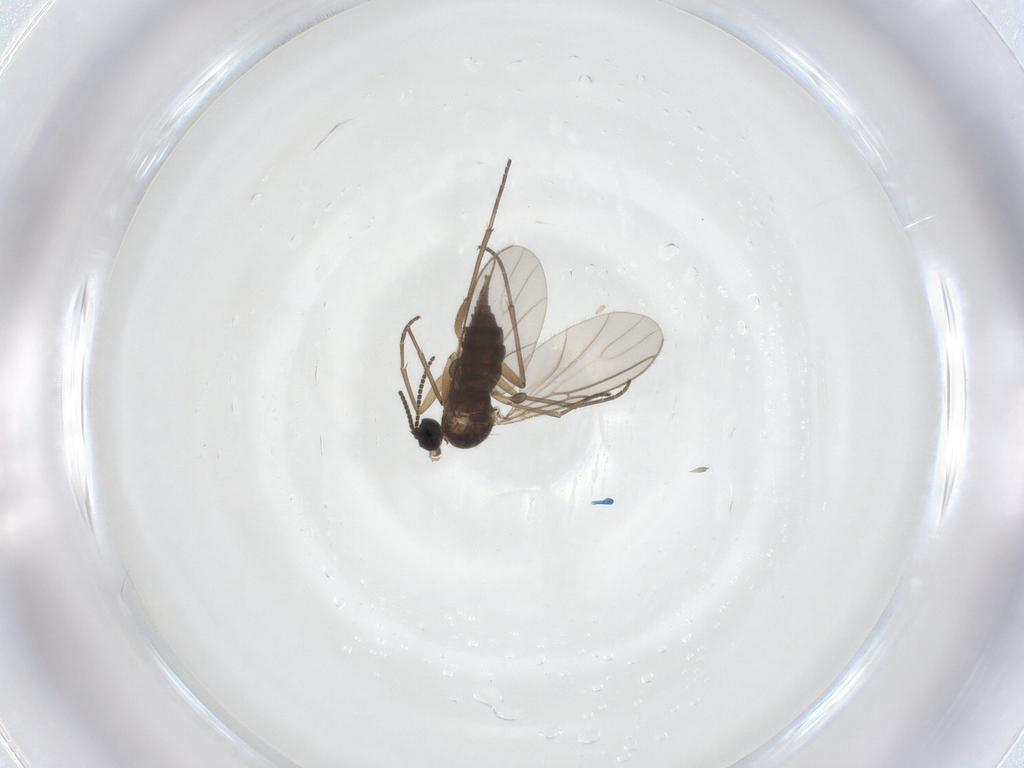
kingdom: Animalia
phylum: Arthropoda
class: Insecta
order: Diptera
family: Sciaridae
